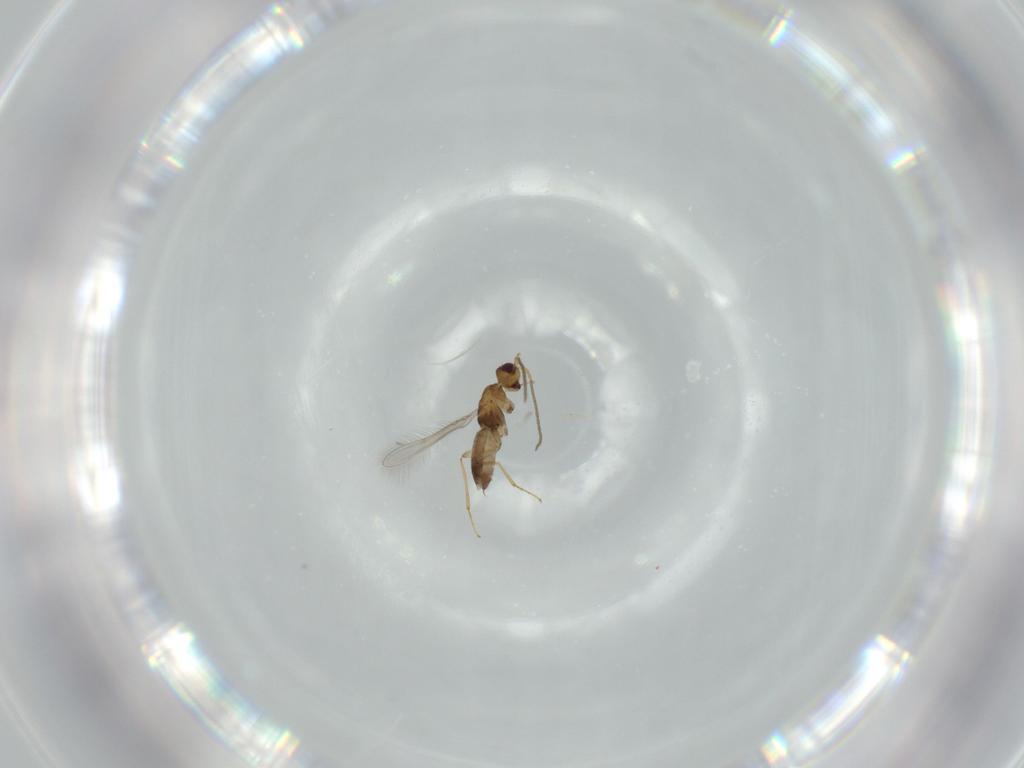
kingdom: Animalia
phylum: Arthropoda
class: Insecta
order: Hymenoptera
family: Mymaridae
